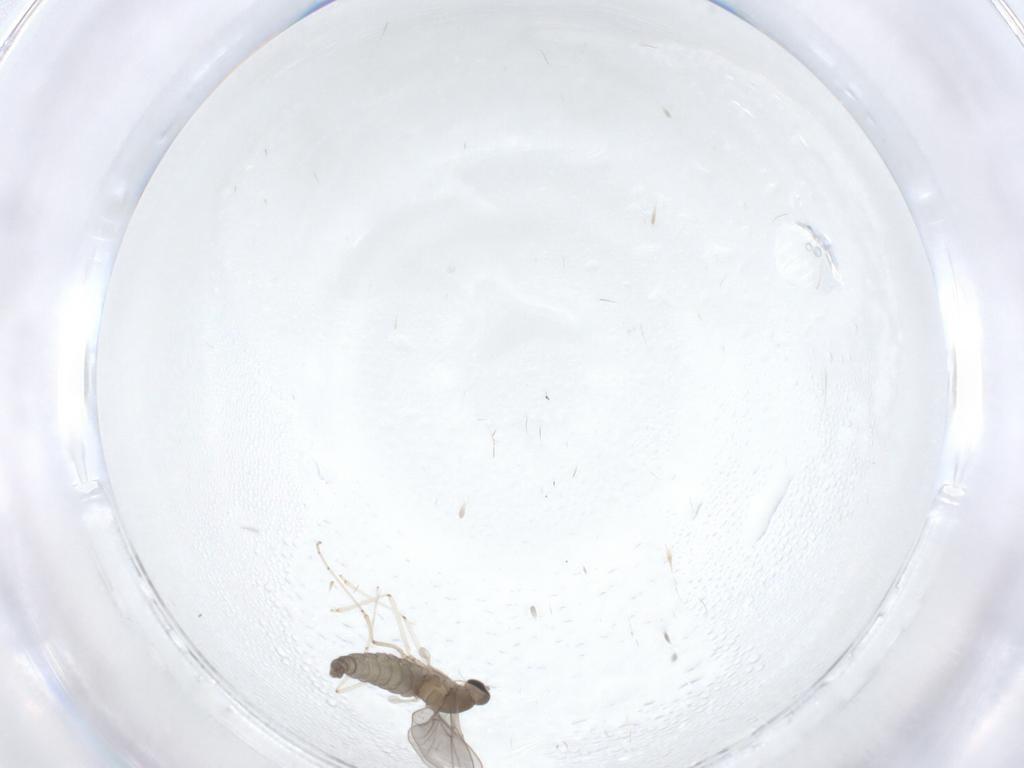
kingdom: Animalia
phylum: Arthropoda
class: Insecta
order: Diptera
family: Cecidomyiidae
